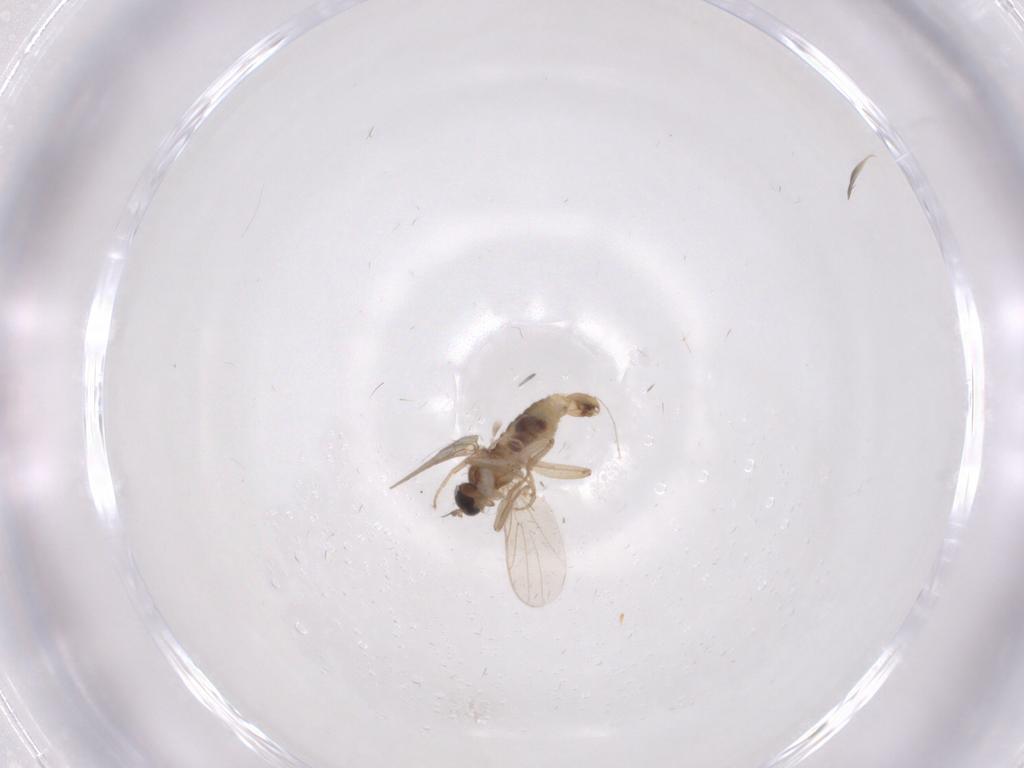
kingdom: Animalia
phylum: Arthropoda
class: Insecta
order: Diptera
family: Hybotidae
